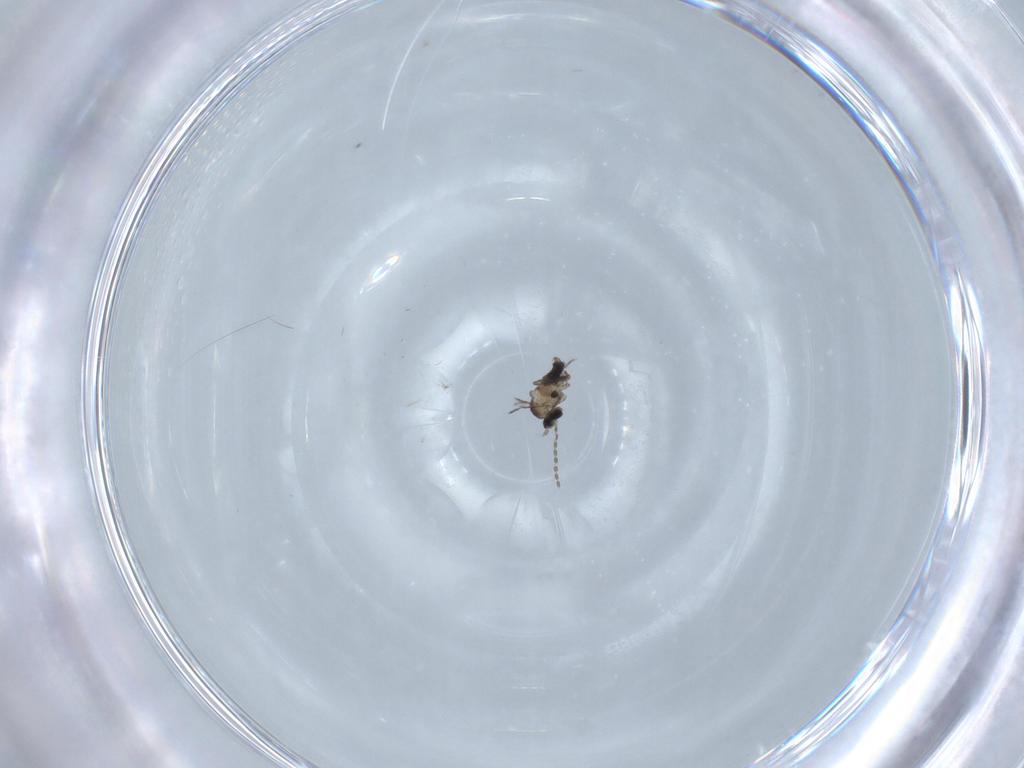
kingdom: Animalia
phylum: Arthropoda
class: Insecta
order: Diptera
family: Cecidomyiidae
